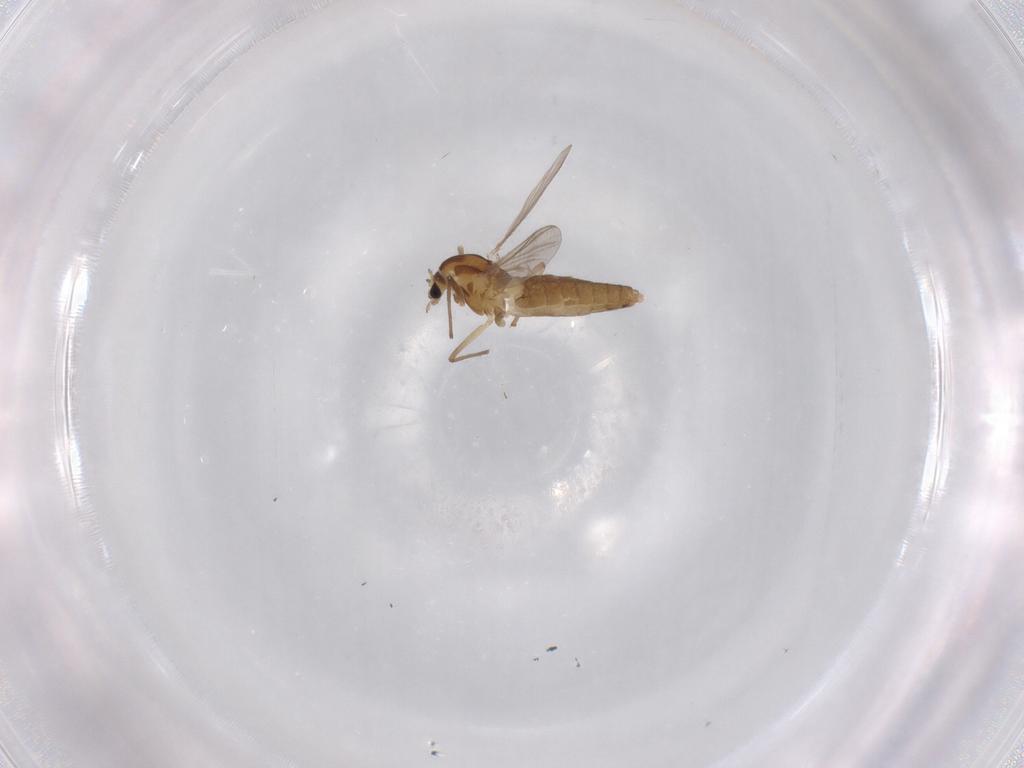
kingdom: Animalia
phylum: Arthropoda
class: Insecta
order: Diptera
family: Chironomidae
